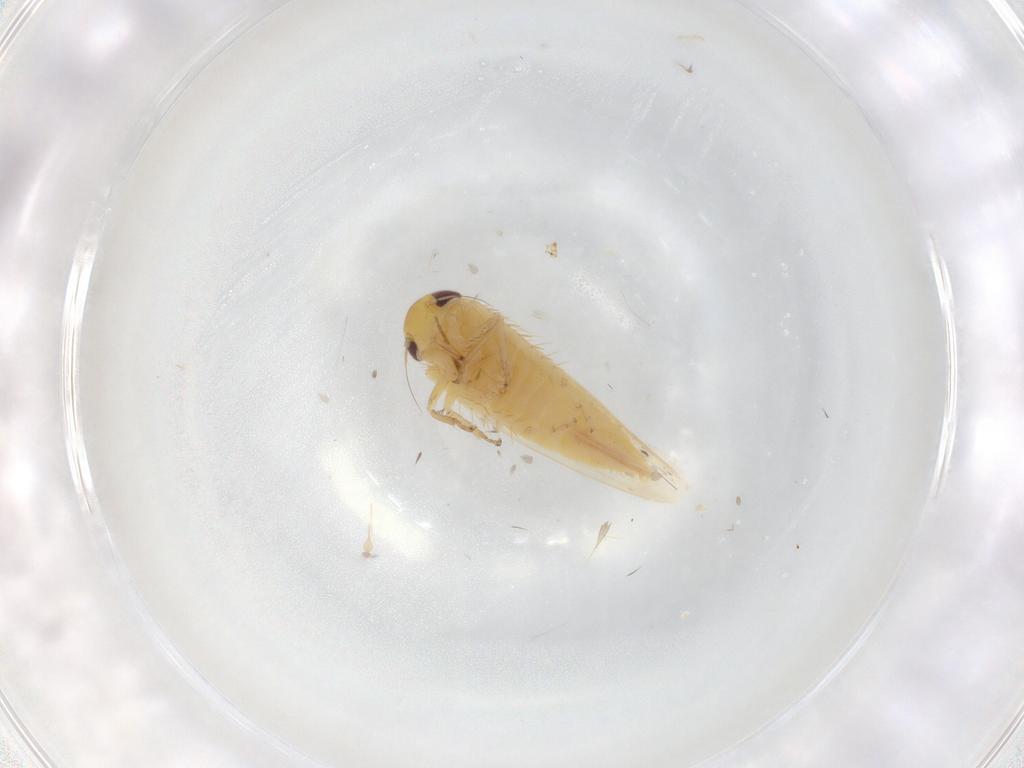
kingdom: Animalia
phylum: Arthropoda
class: Insecta
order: Hemiptera
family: Cicadellidae
